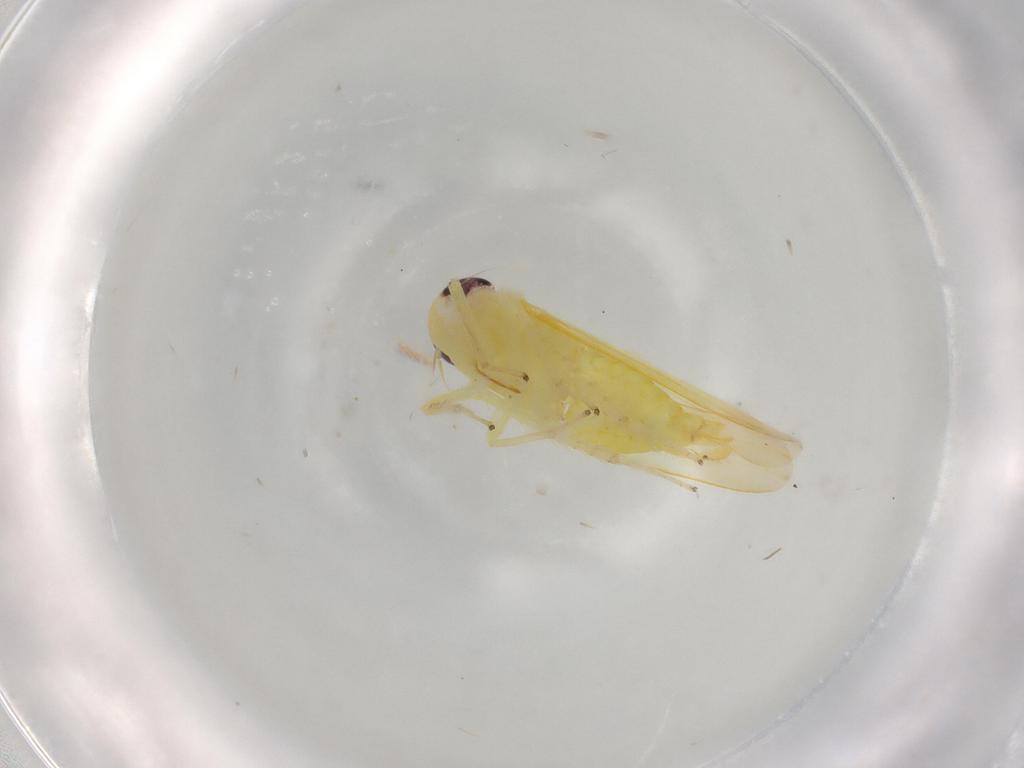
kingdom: Animalia
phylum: Arthropoda
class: Insecta
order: Hemiptera
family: Cicadellidae
